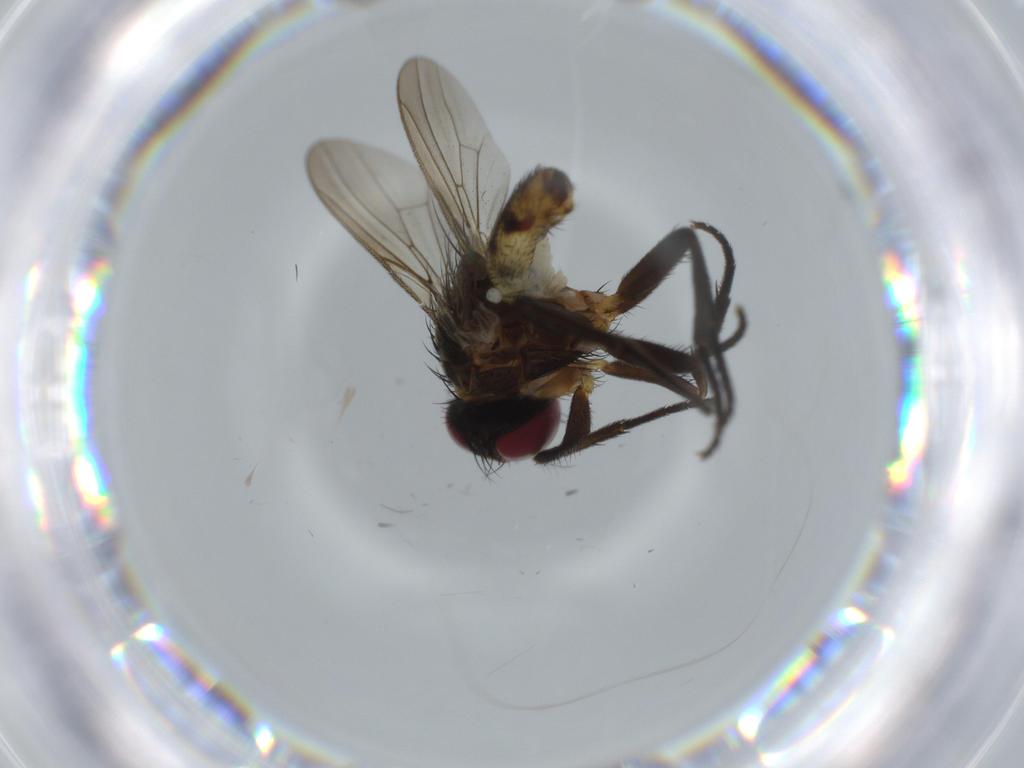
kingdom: Animalia
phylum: Arthropoda
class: Insecta
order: Diptera
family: Anthomyiidae
